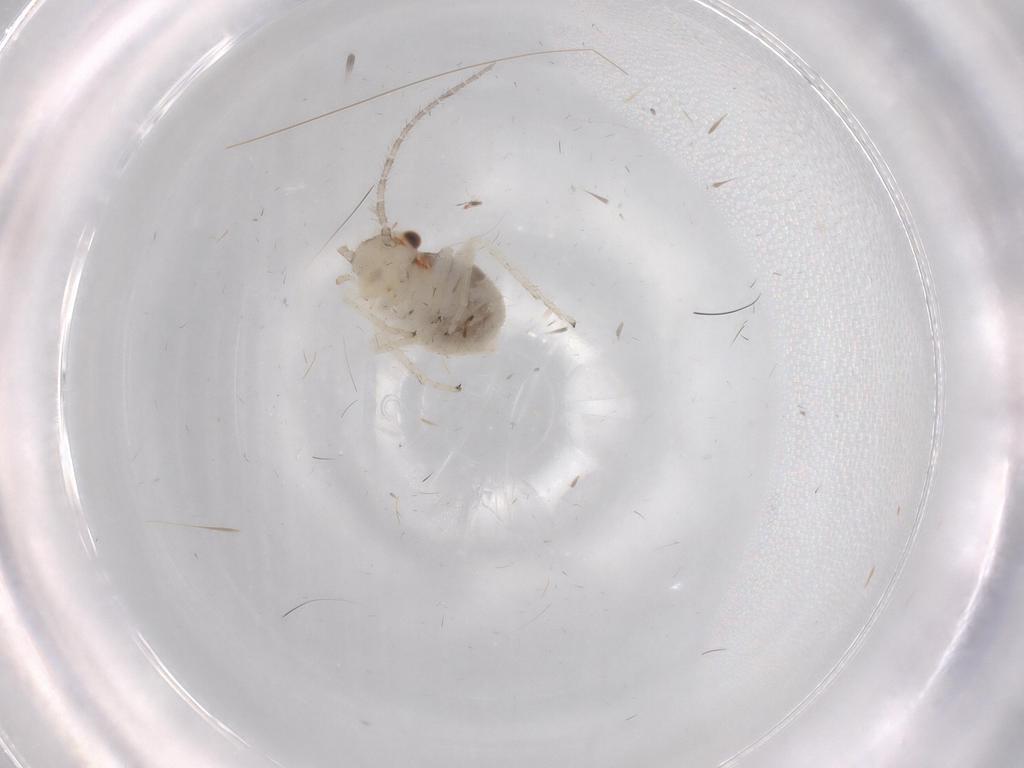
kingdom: Animalia
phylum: Arthropoda
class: Insecta
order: Psocodea
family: Amphipsocidae
